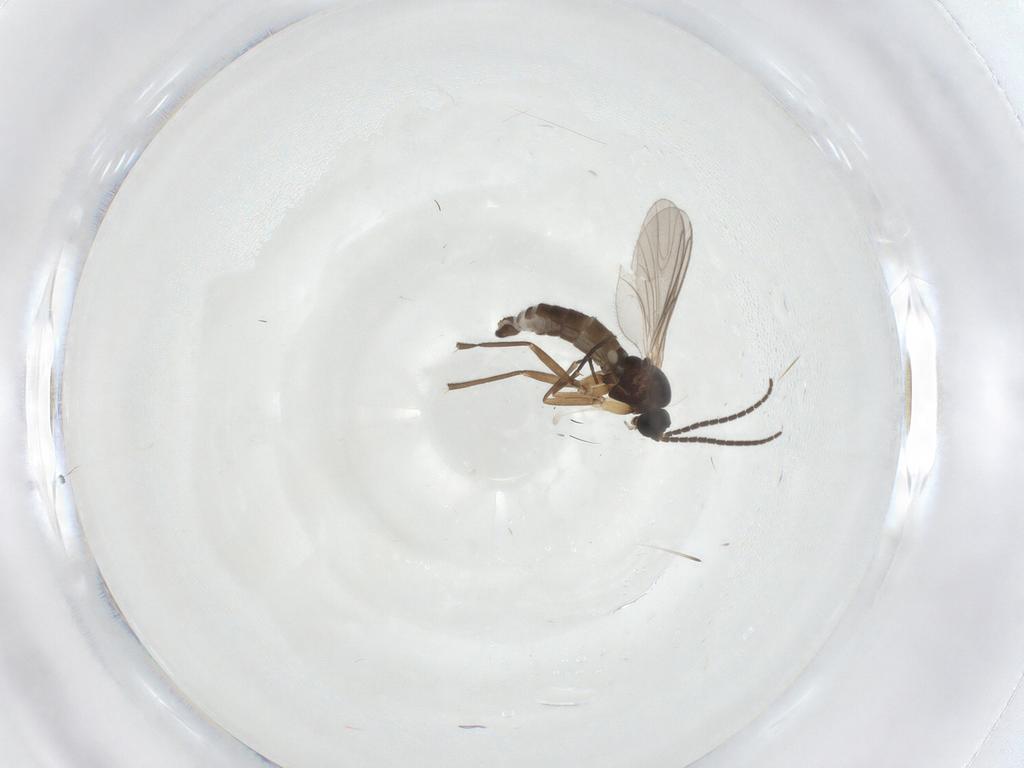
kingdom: Animalia
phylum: Arthropoda
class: Insecta
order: Diptera
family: Sciaridae
